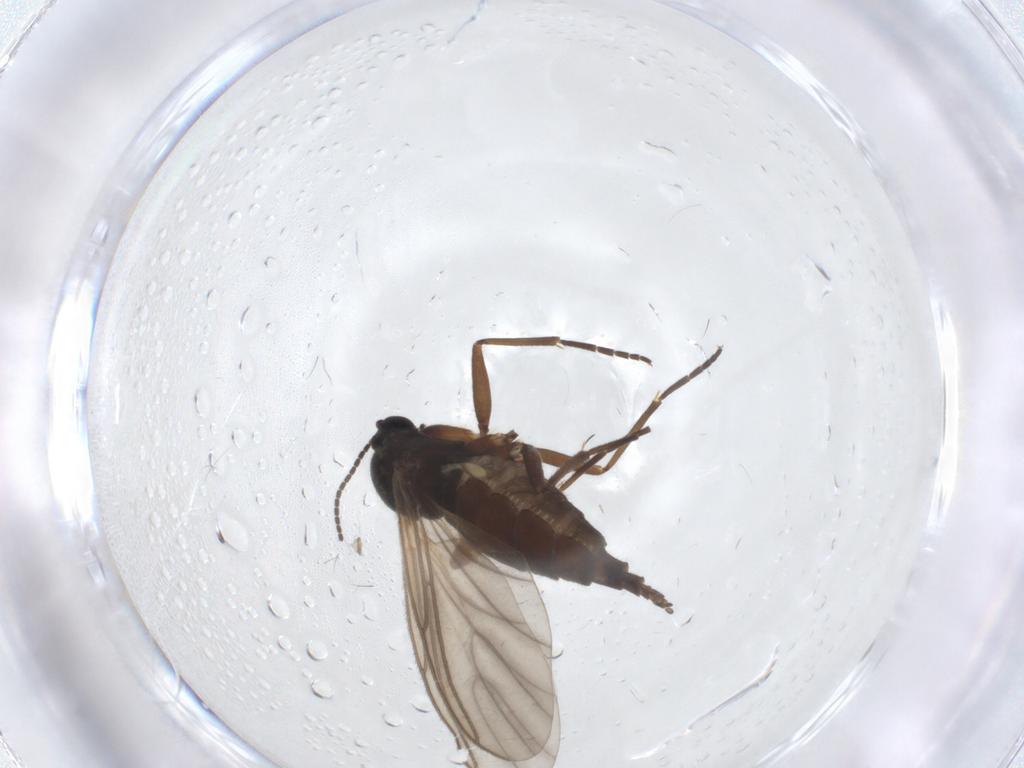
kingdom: Animalia
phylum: Arthropoda
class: Insecta
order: Diptera
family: Sciaridae
